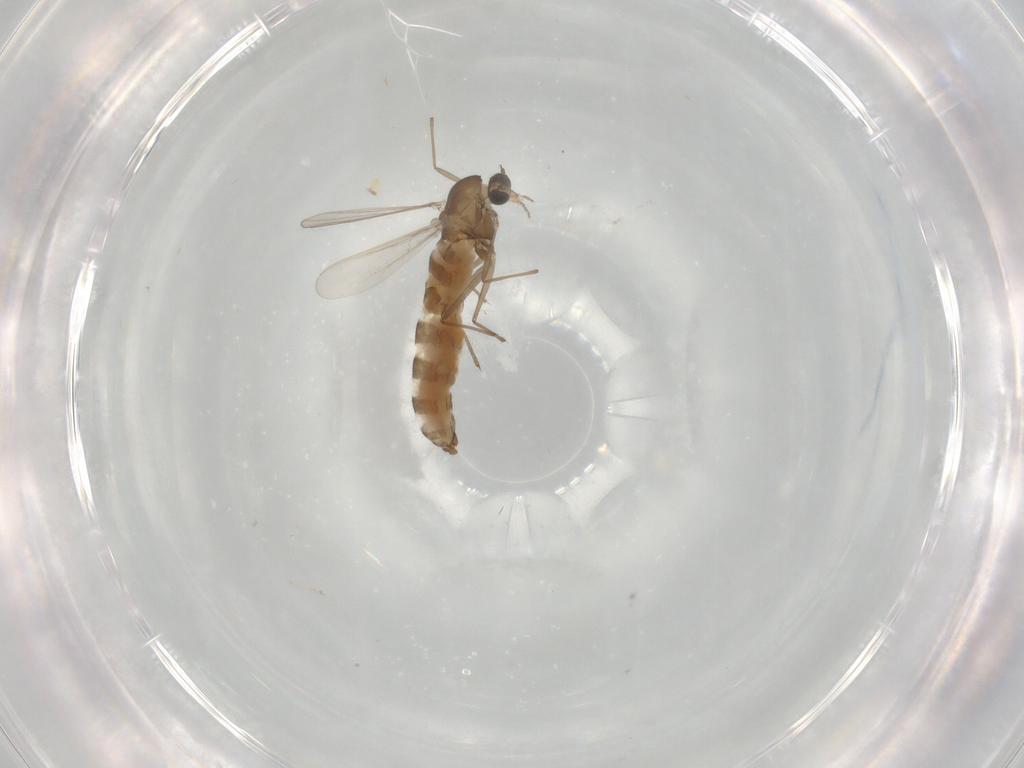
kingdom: Animalia
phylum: Arthropoda
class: Insecta
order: Diptera
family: Chironomidae
